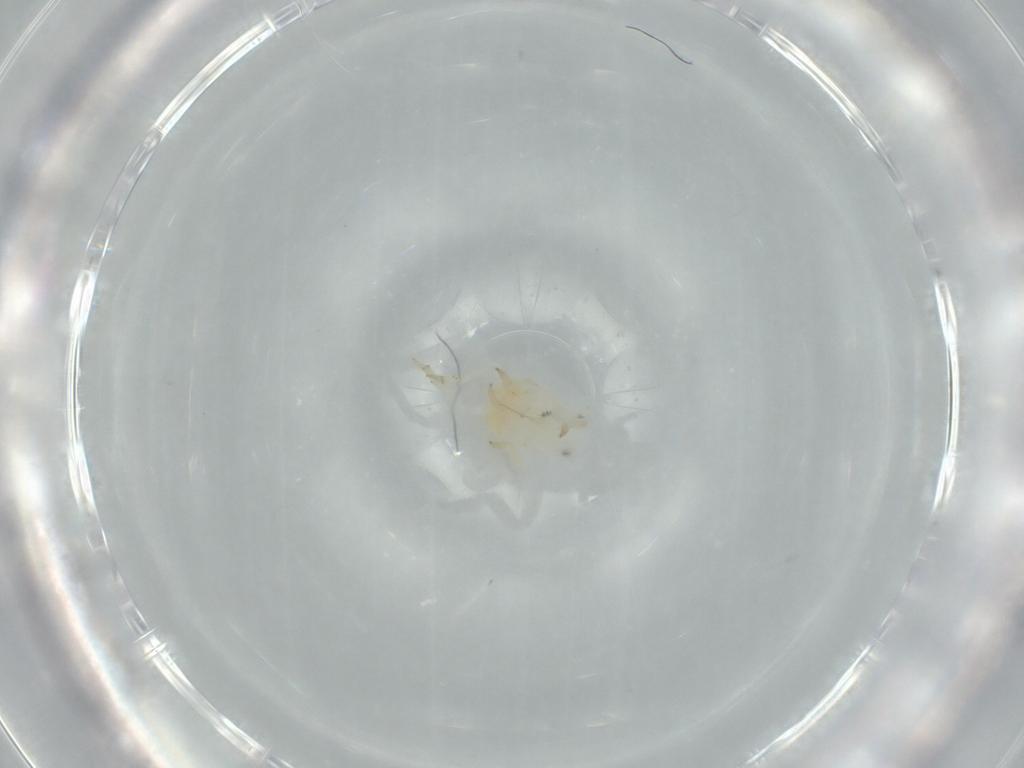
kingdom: Animalia
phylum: Arthropoda
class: Insecta
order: Hemiptera
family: Flatidae
